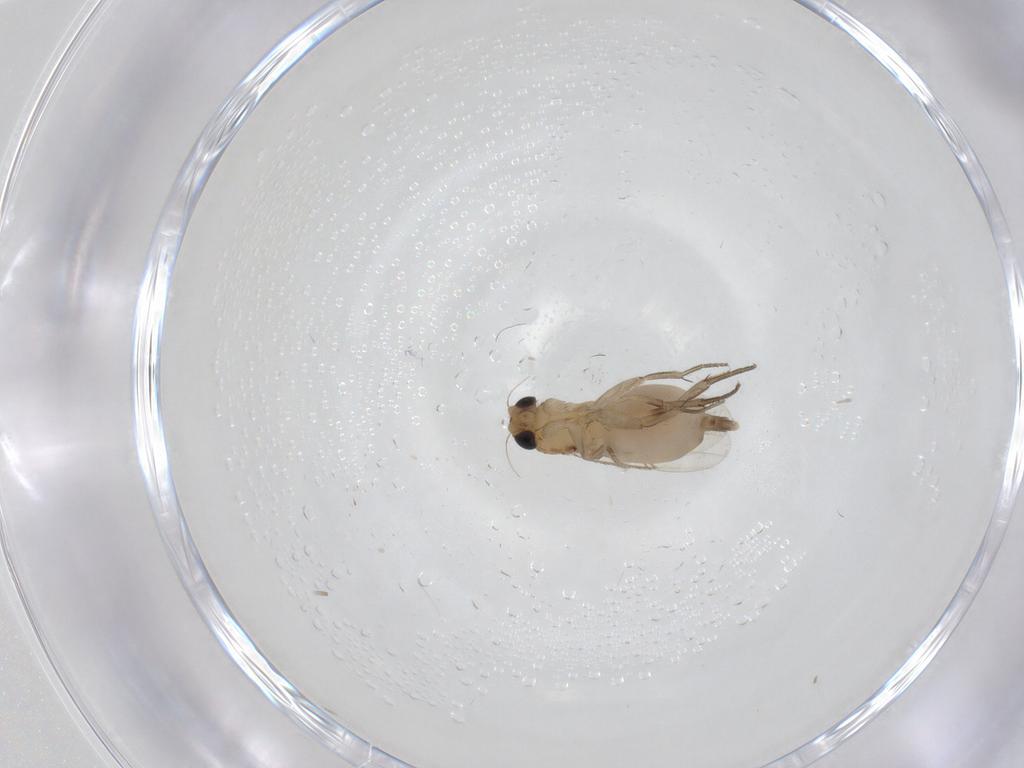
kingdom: Animalia
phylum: Arthropoda
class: Insecta
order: Diptera
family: Phoridae
